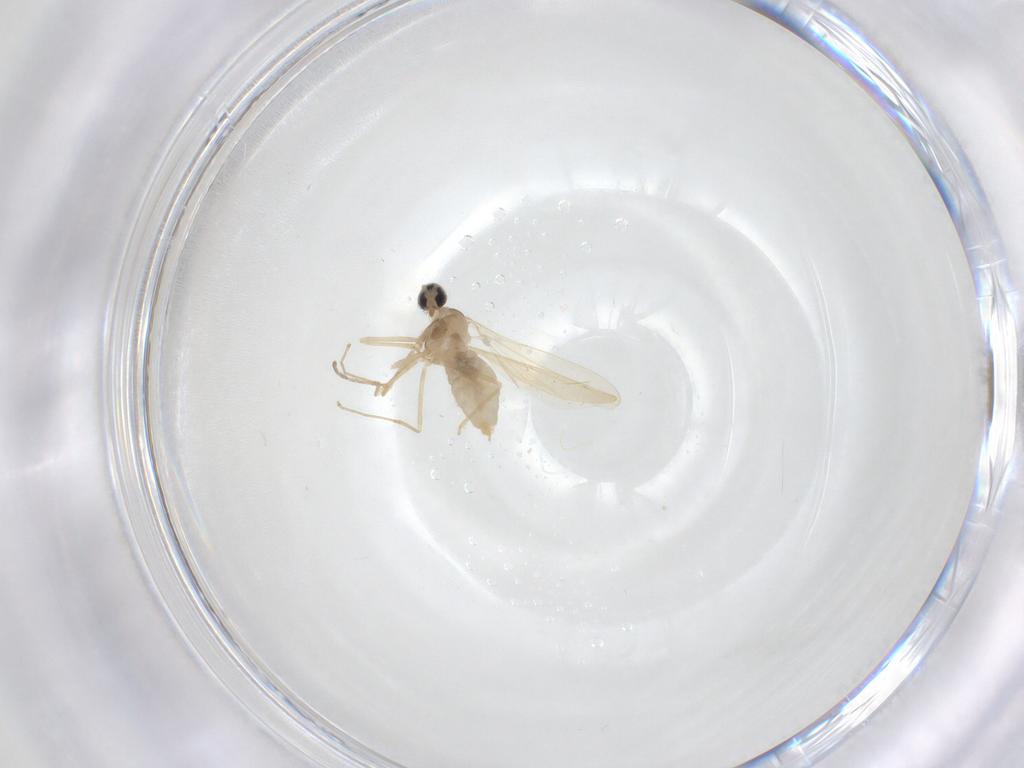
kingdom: Animalia
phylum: Arthropoda
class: Insecta
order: Diptera
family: Cecidomyiidae
